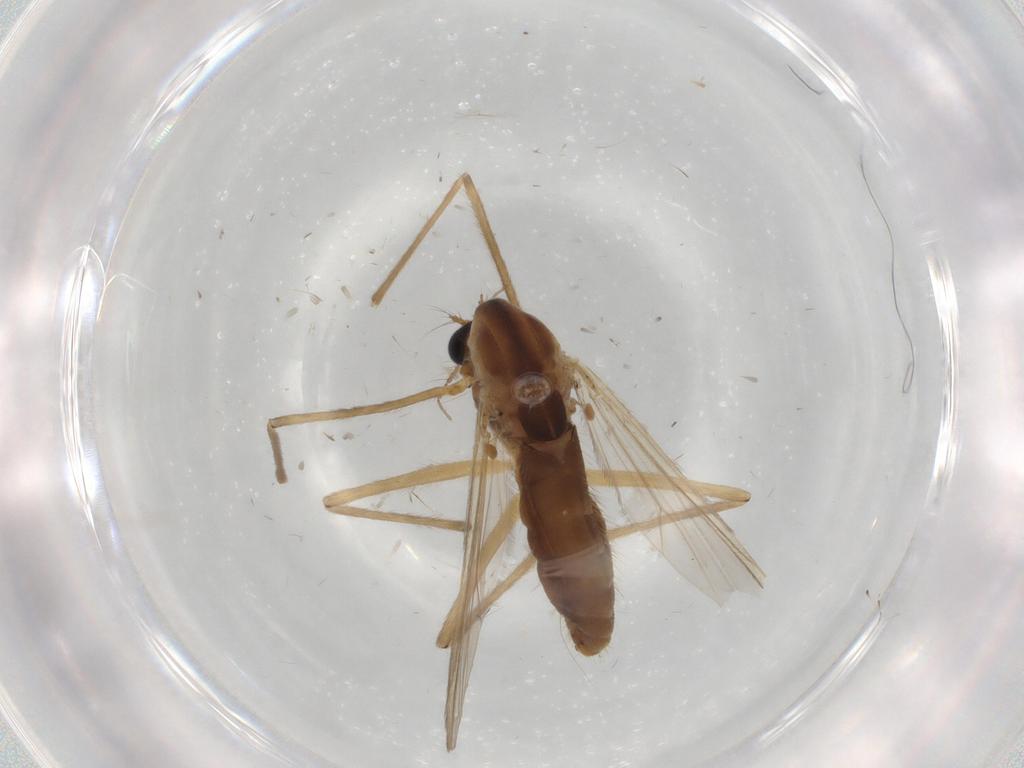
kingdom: Animalia
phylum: Arthropoda
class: Insecta
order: Diptera
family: Chironomidae
